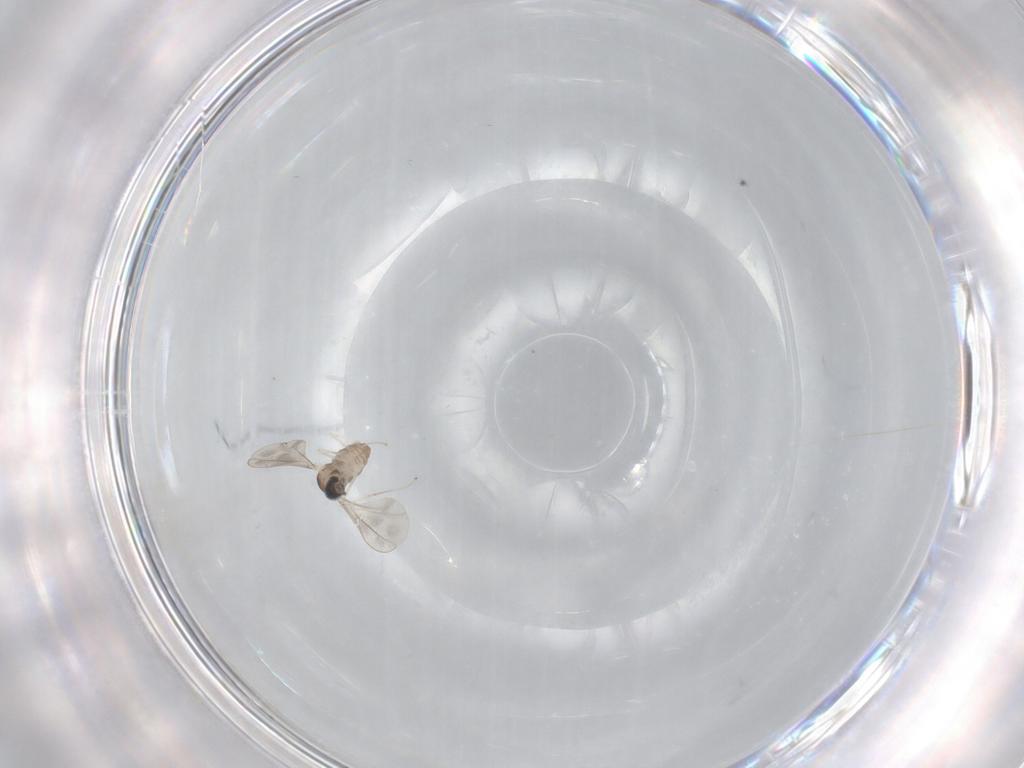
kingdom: Animalia
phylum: Arthropoda
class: Insecta
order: Diptera
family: Cecidomyiidae
